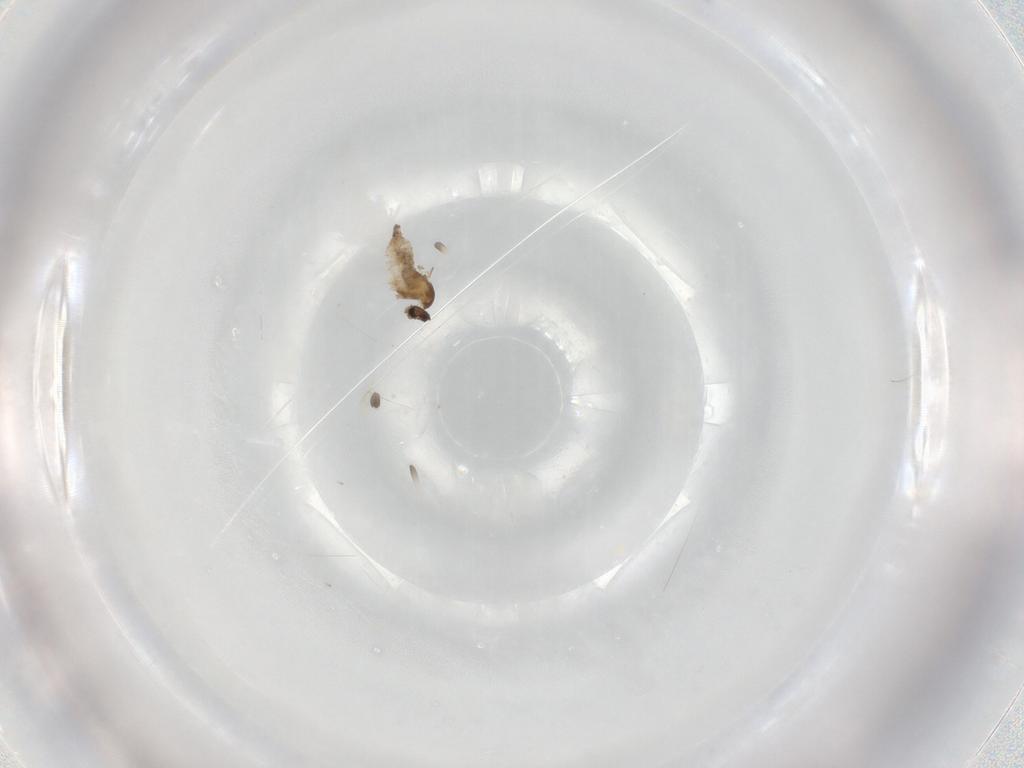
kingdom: Animalia
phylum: Arthropoda
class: Insecta
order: Diptera
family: Cecidomyiidae
